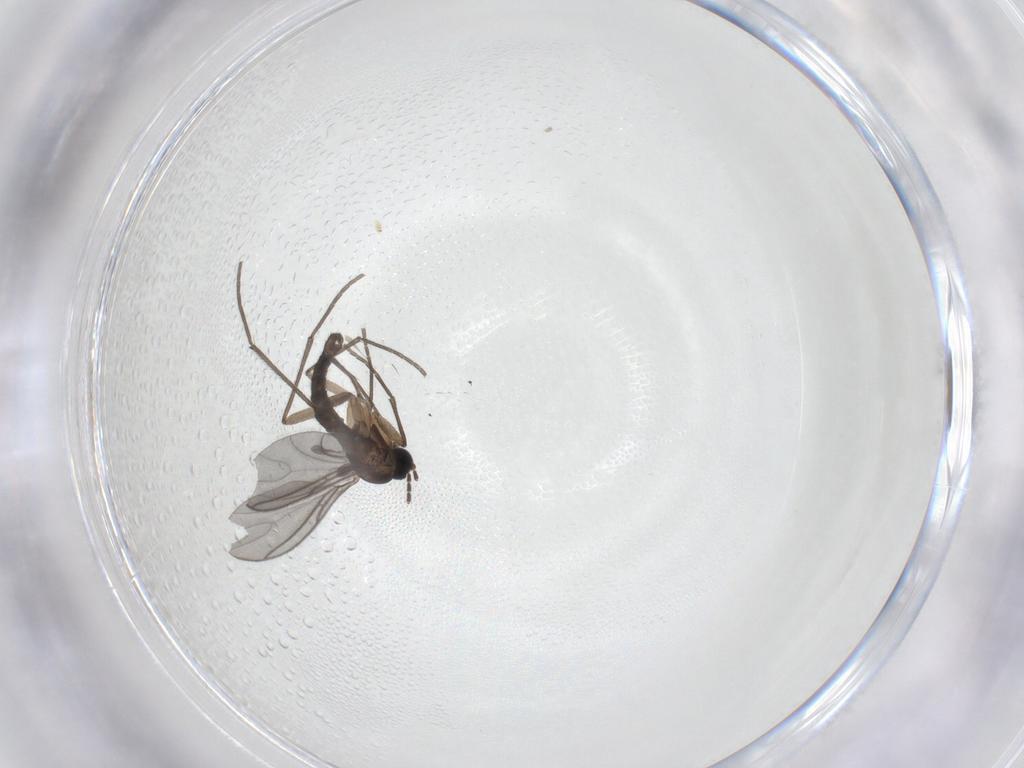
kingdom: Animalia
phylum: Arthropoda
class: Insecta
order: Diptera
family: Sciaridae
